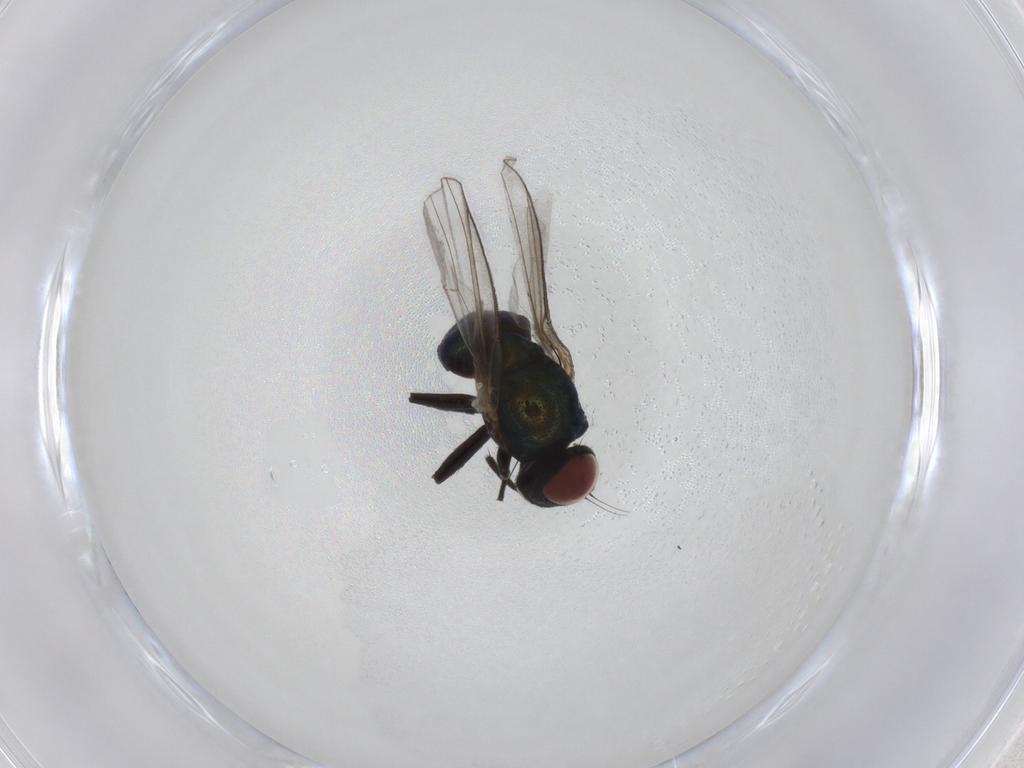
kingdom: Animalia
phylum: Arthropoda
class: Insecta
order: Diptera
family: Agromyzidae
